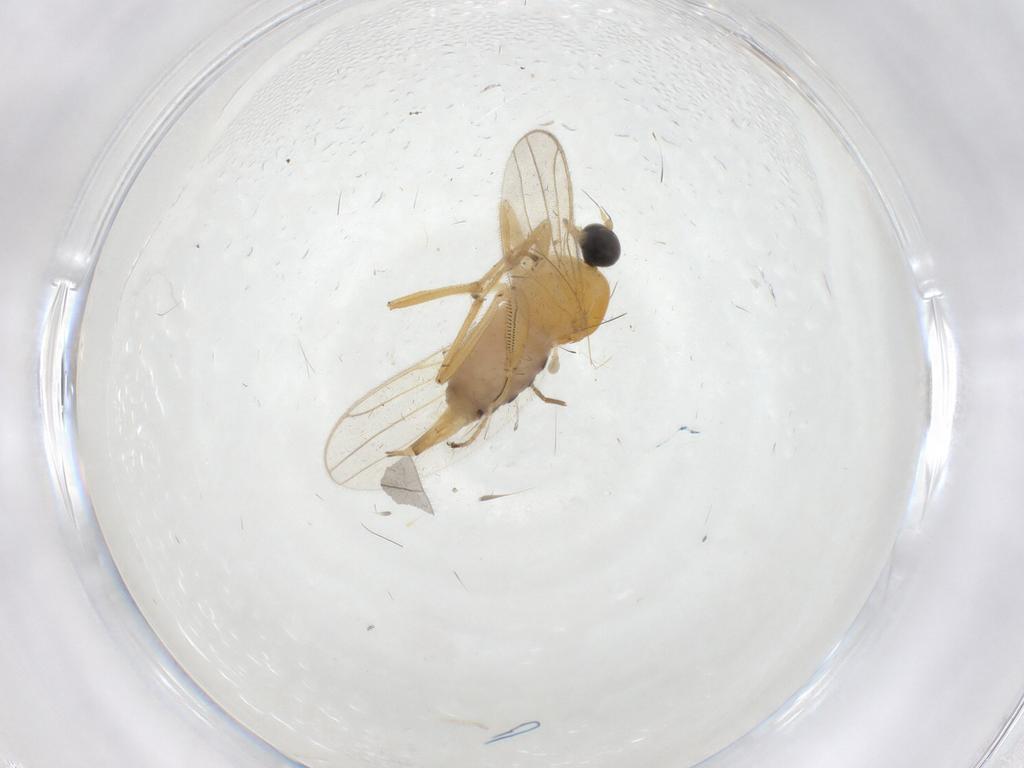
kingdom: Animalia
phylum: Arthropoda
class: Insecta
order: Diptera
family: Hybotidae
